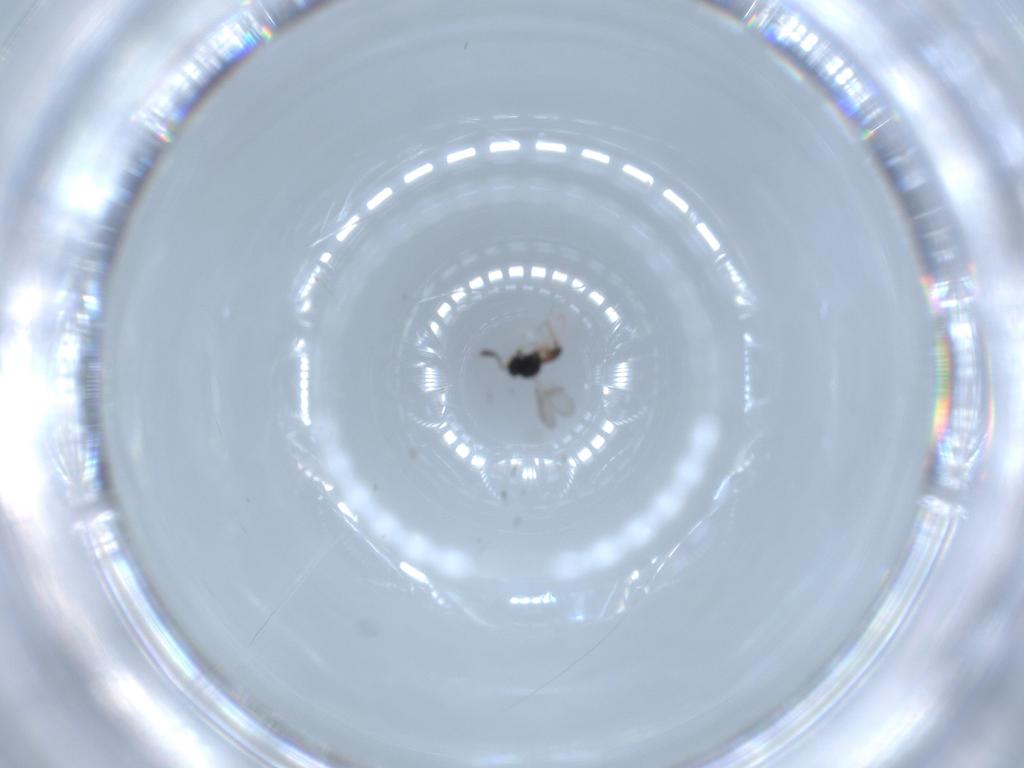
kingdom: Animalia
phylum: Arthropoda
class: Insecta
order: Hymenoptera
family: Scelionidae
